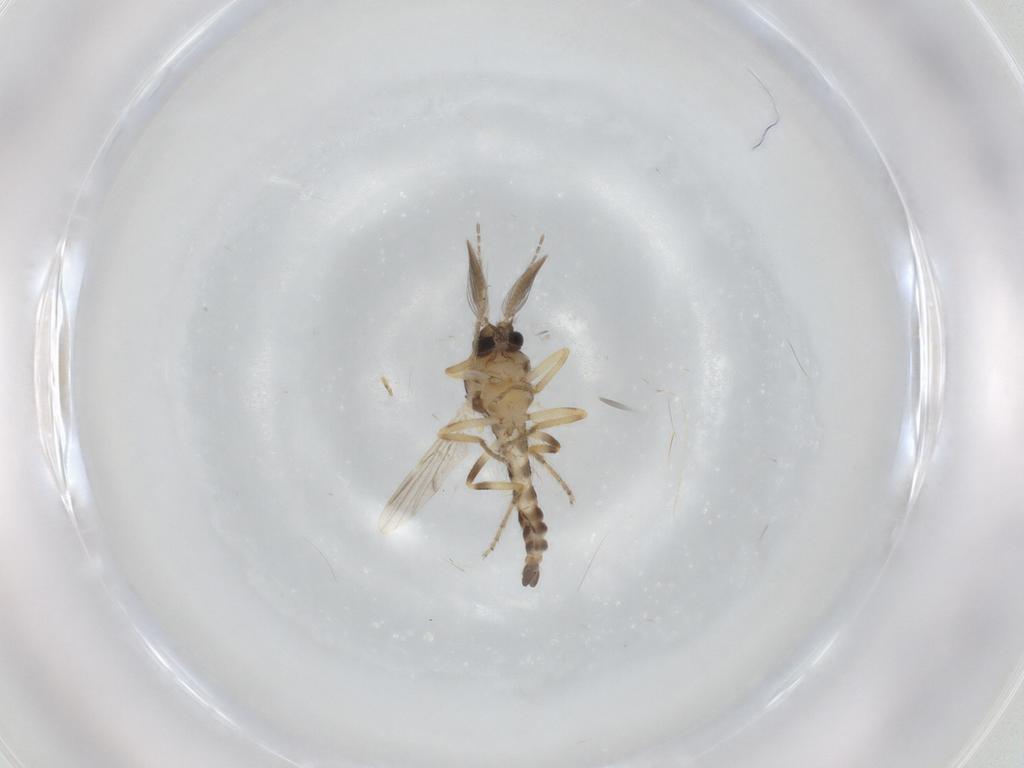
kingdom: Animalia
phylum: Arthropoda
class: Insecta
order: Diptera
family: Ceratopogonidae
